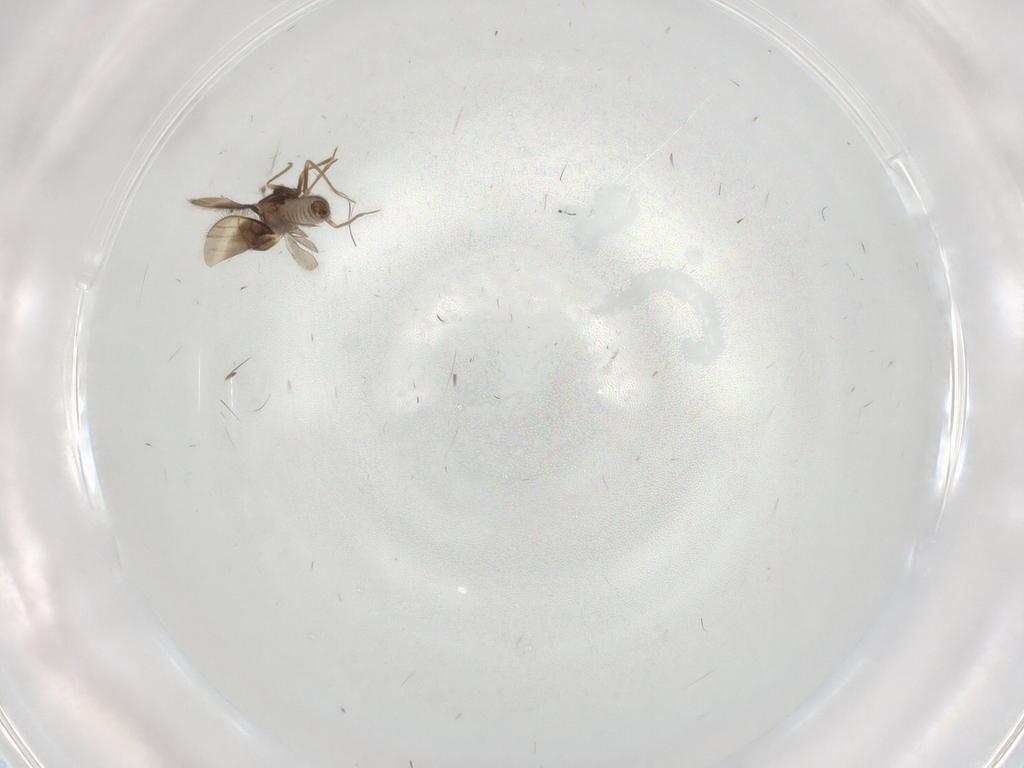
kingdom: Animalia
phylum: Arthropoda
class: Insecta
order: Hemiptera
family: Schizopteridae
